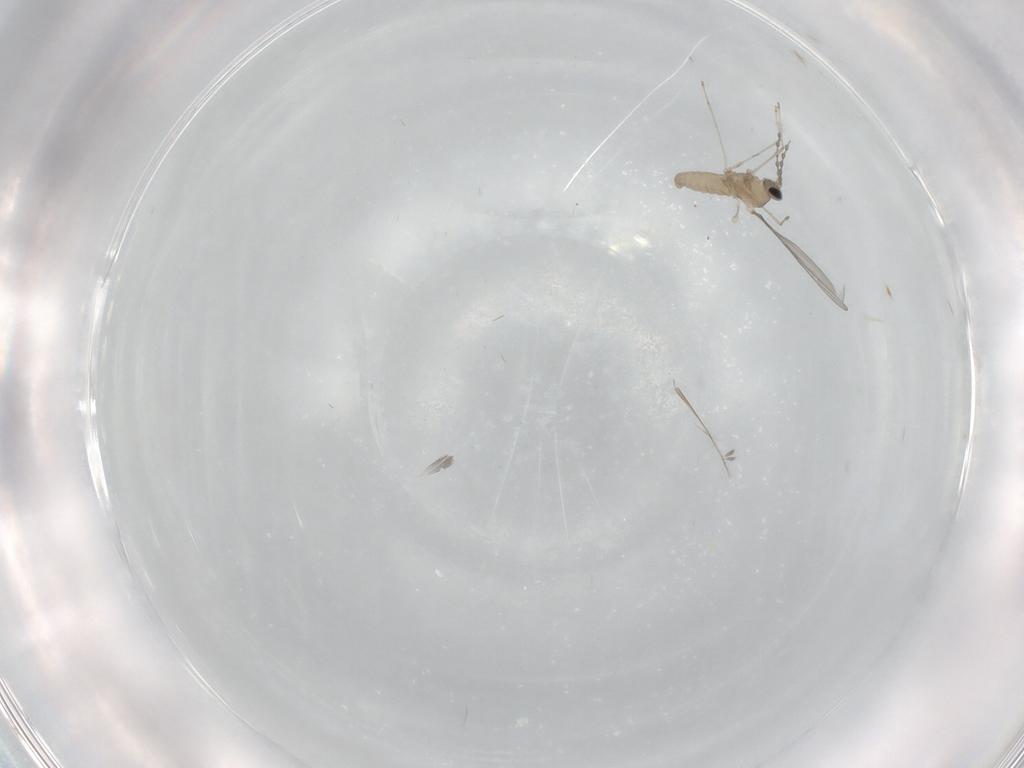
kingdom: Animalia
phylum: Arthropoda
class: Insecta
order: Diptera
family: Cecidomyiidae
